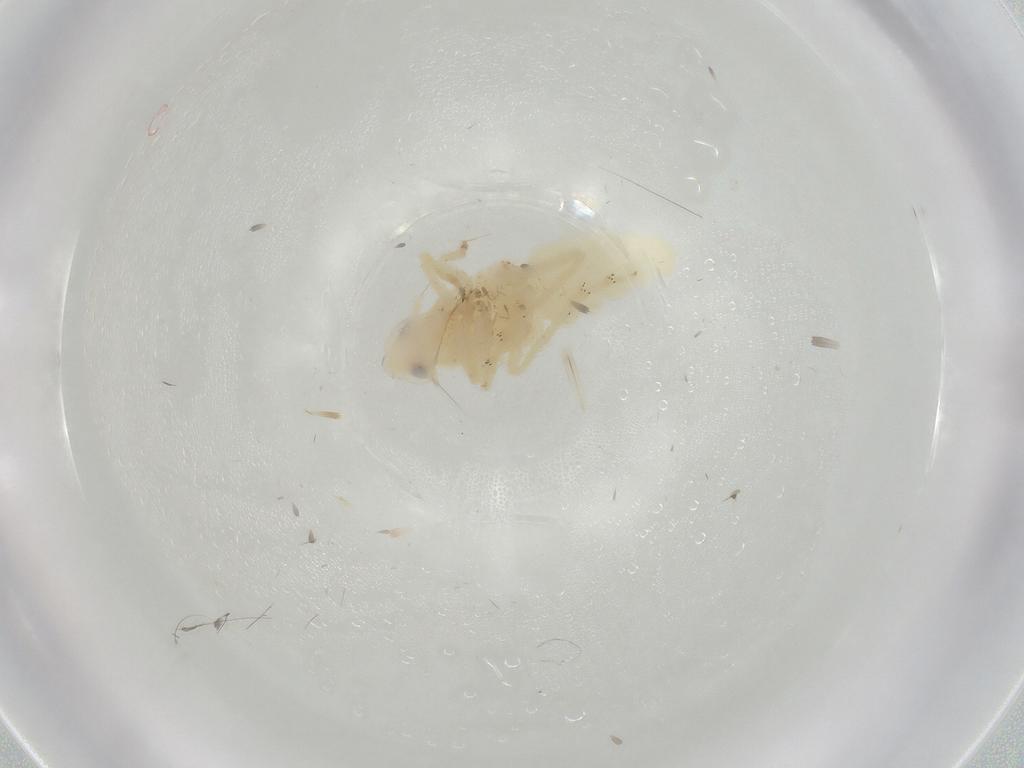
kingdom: Animalia
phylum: Arthropoda
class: Insecta
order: Hemiptera
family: Tropiduchidae
